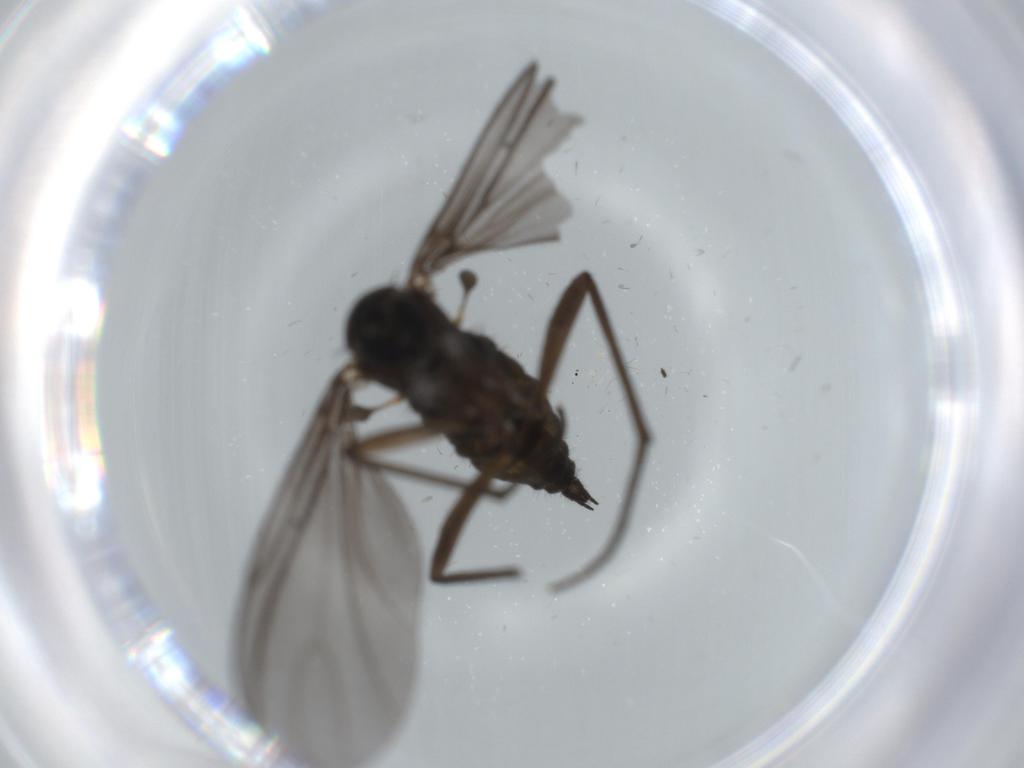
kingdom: Animalia
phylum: Arthropoda
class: Insecta
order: Diptera
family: Sciaridae
